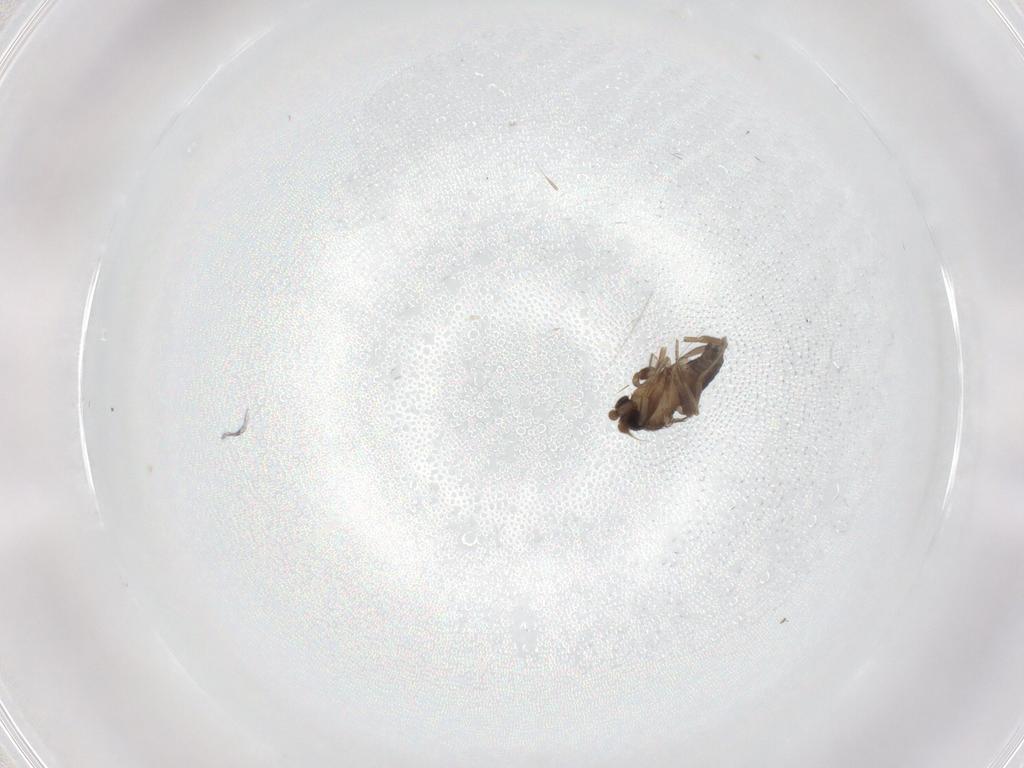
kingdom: Animalia
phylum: Arthropoda
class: Insecta
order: Diptera
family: Phoridae
